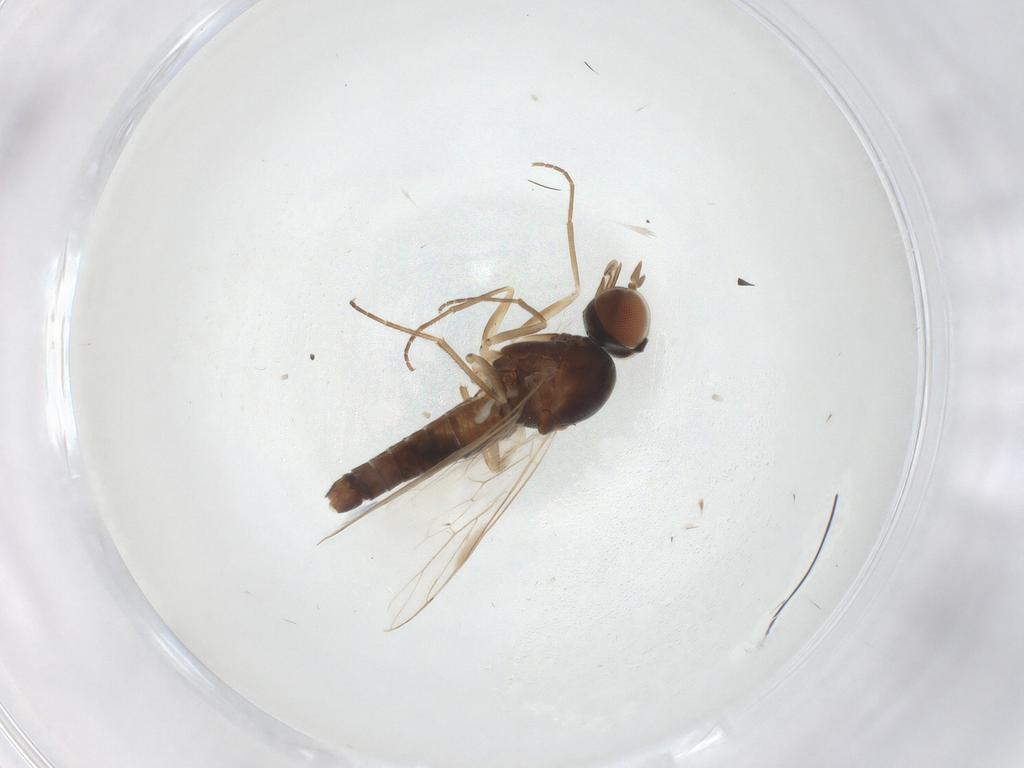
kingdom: Animalia
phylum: Arthropoda
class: Insecta
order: Diptera
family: Scenopinidae
